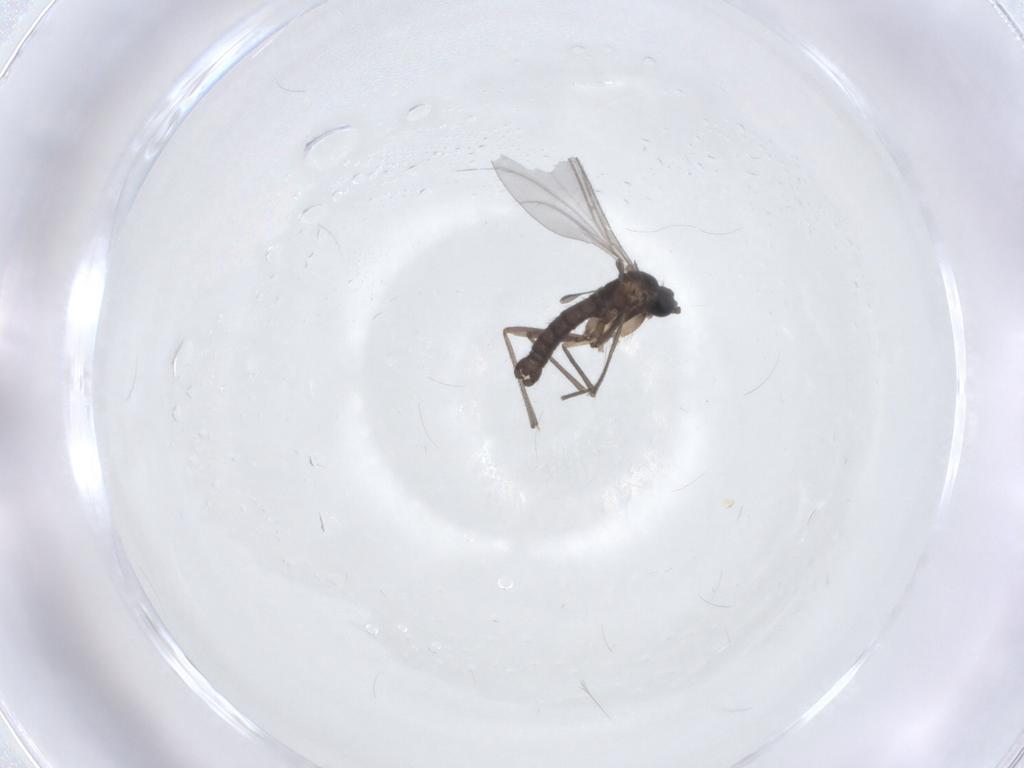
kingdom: Animalia
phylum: Arthropoda
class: Insecta
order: Diptera
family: Sciaridae
